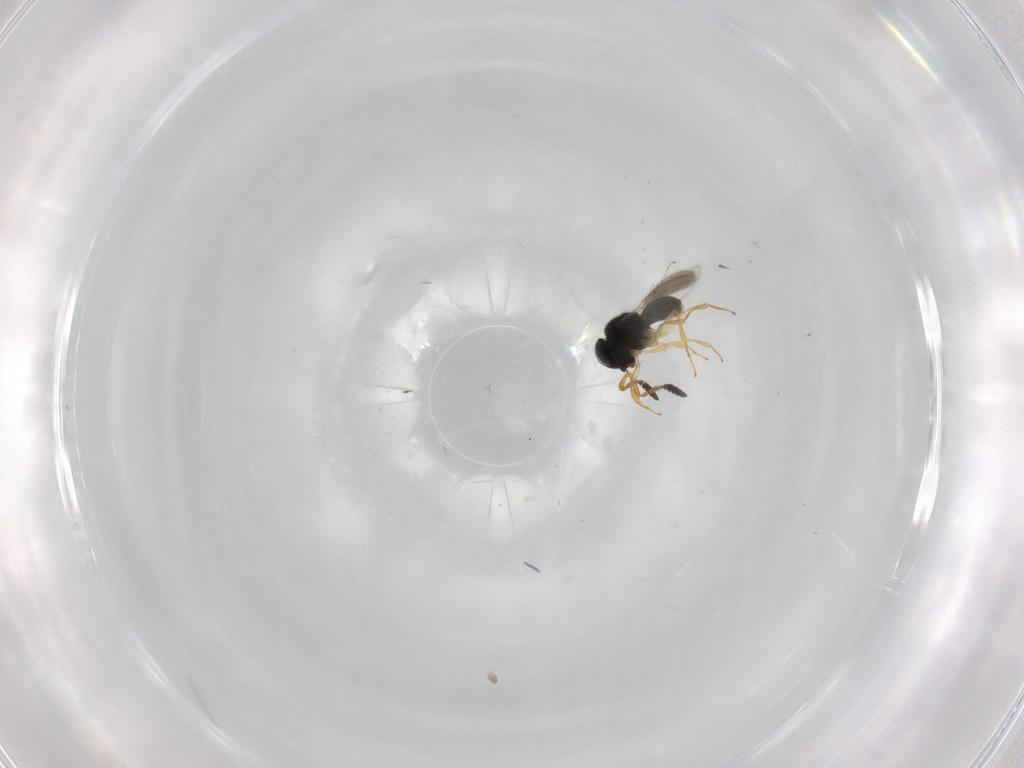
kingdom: Animalia
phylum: Arthropoda
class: Insecta
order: Hymenoptera
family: Scelionidae
